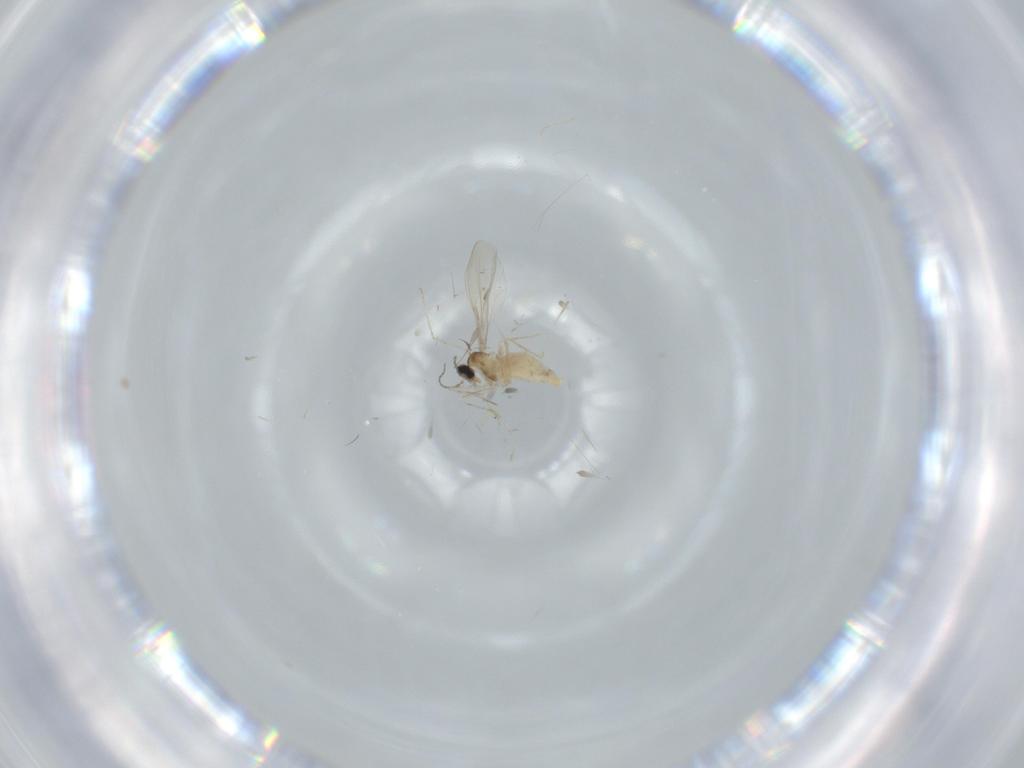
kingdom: Animalia
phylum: Arthropoda
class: Insecta
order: Diptera
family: Cecidomyiidae
